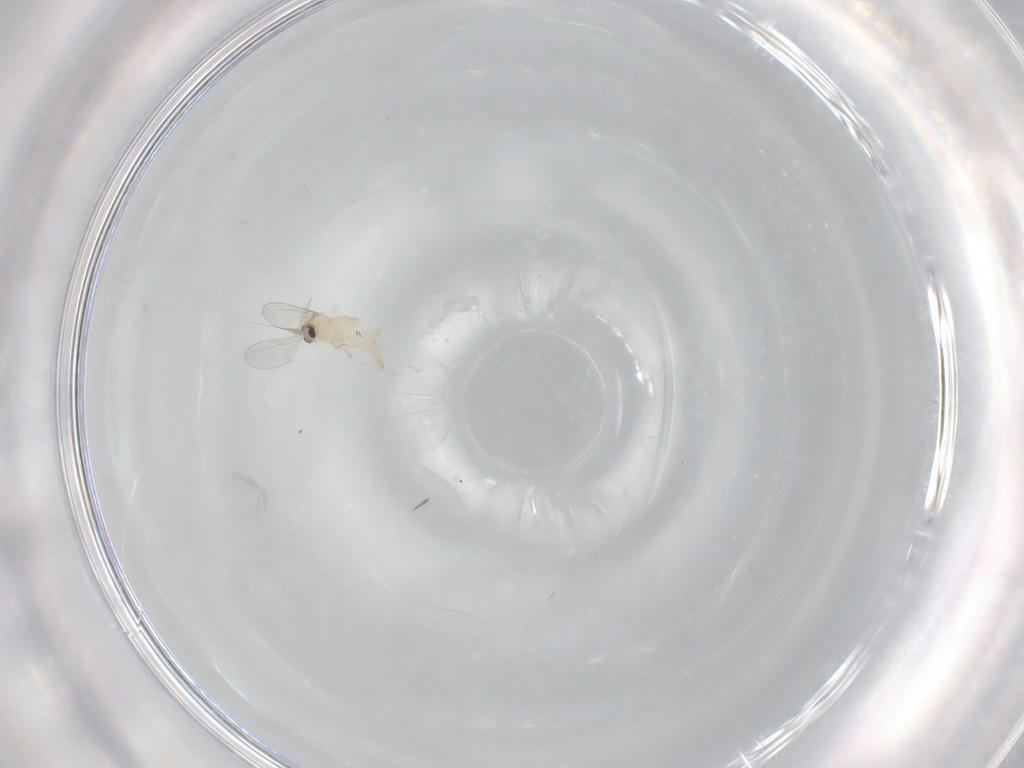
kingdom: Animalia
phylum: Arthropoda
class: Insecta
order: Diptera
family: Cecidomyiidae
